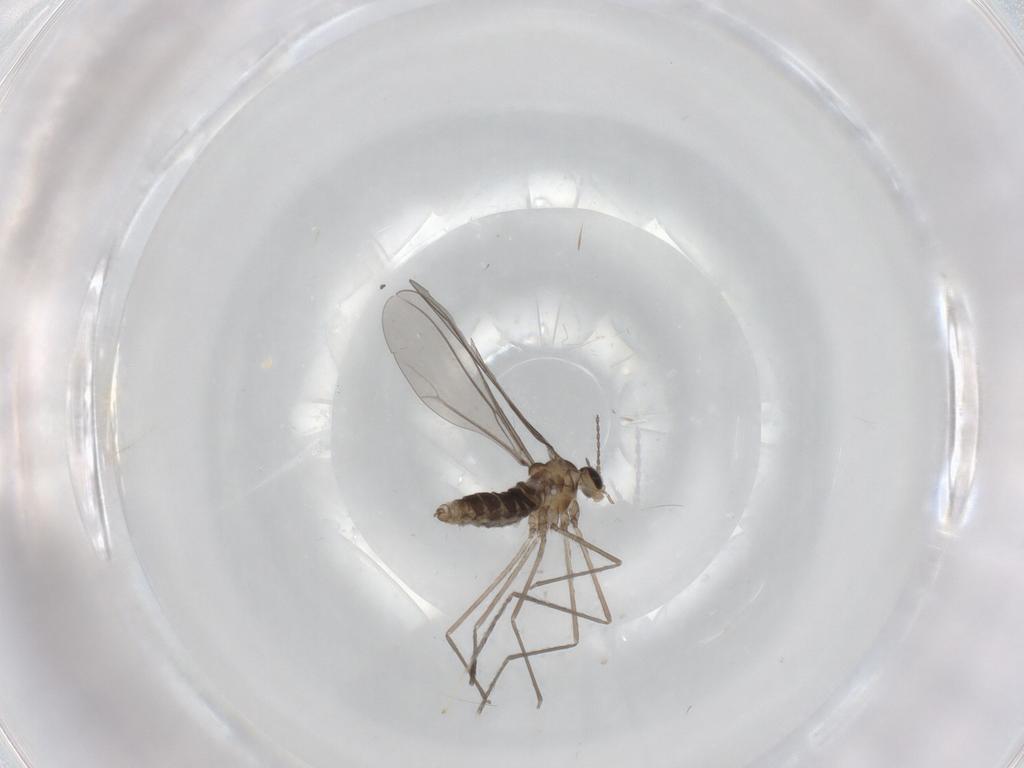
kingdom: Animalia
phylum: Arthropoda
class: Insecta
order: Diptera
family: Cecidomyiidae
